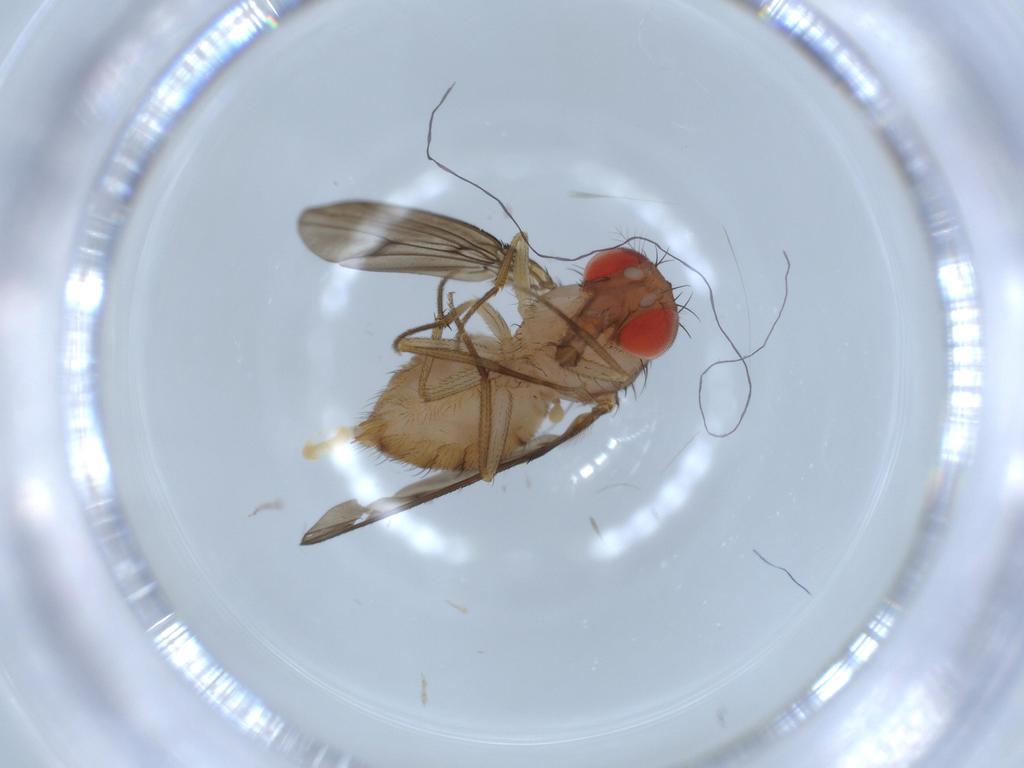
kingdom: Animalia
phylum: Arthropoda
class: Insecta
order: Diptera
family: Drosophilidae
